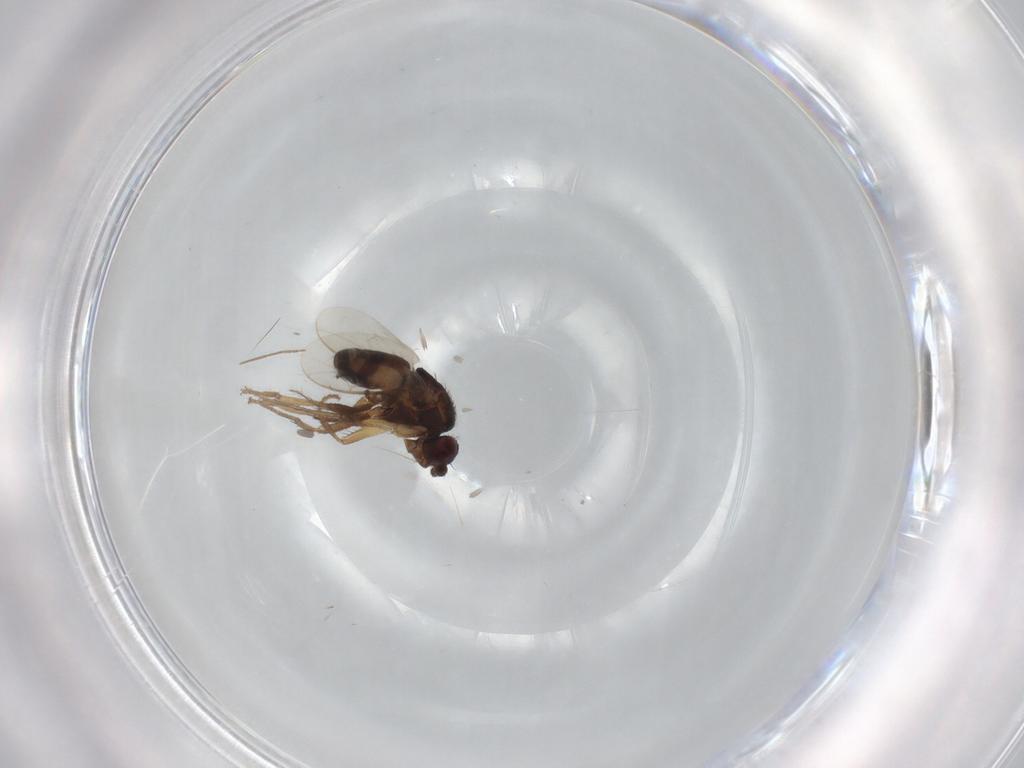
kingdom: Animalia
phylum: Arthropoda
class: Insecta
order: Diptera
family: Sphaeroceridae
